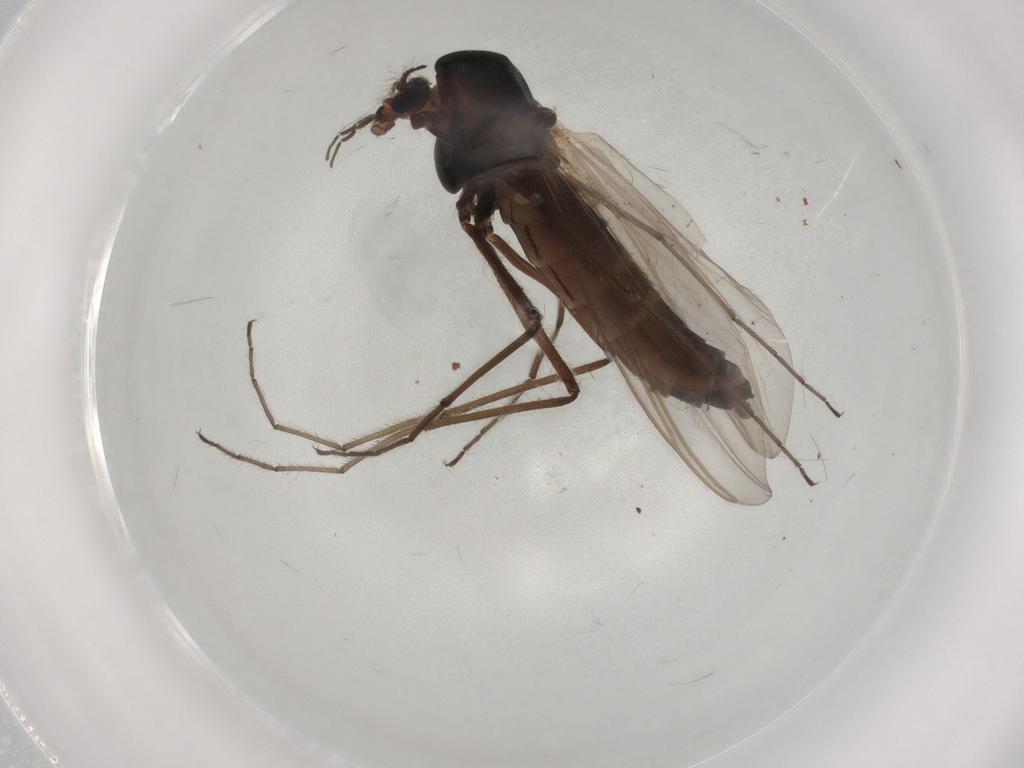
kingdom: Animalia
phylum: Arthropoda
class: Insecta
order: Diptera
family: Chironomidae
